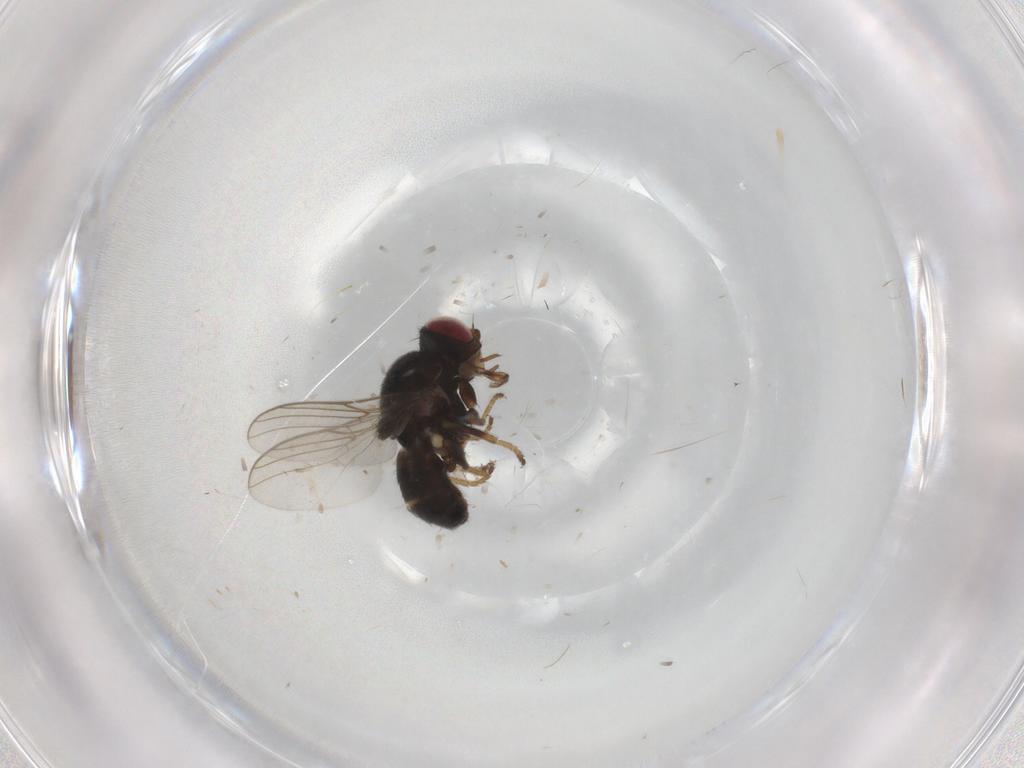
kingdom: Animalia
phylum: Arthropoda
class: Insecta
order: Diptera
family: Chloropidae
